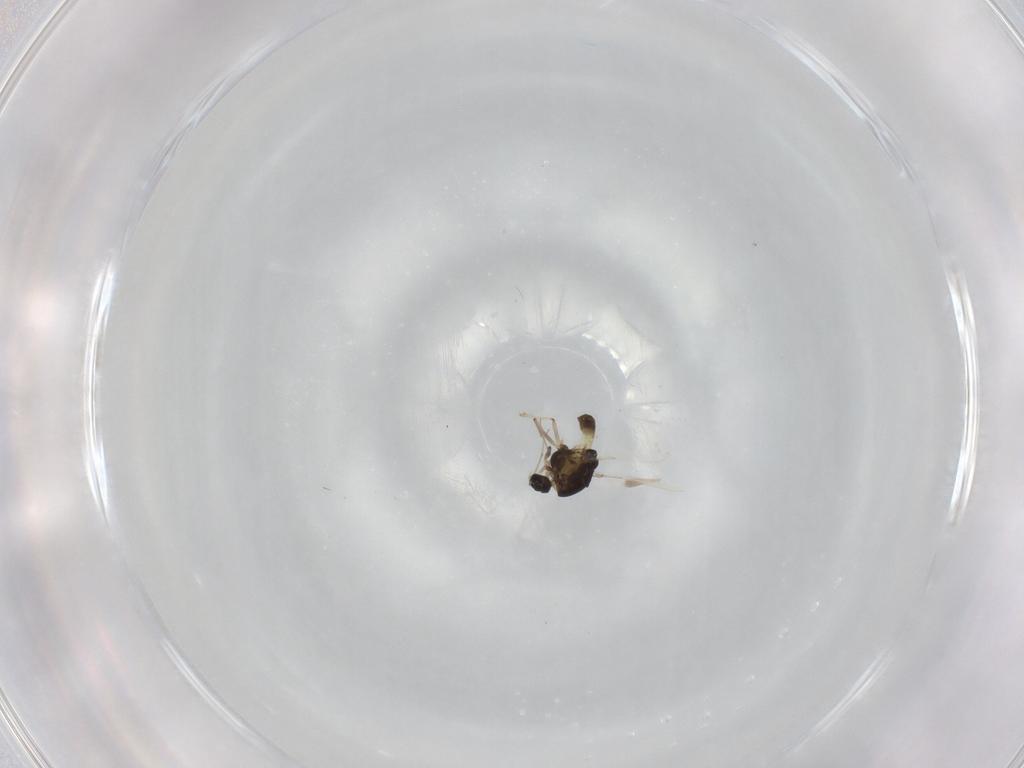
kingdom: Animalia
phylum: Arthropoda
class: Insecta
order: Diptera
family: Chironomidae
